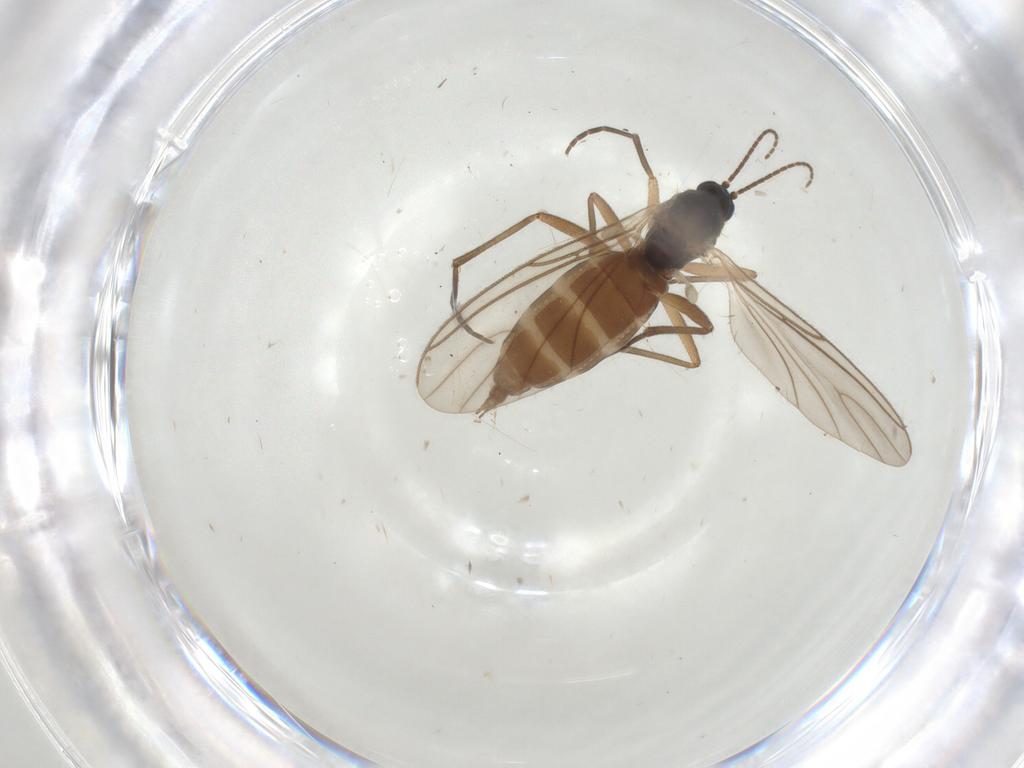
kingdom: Animalia
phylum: Arthropoda
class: Insecta
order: Diptera
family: Sciaridae
